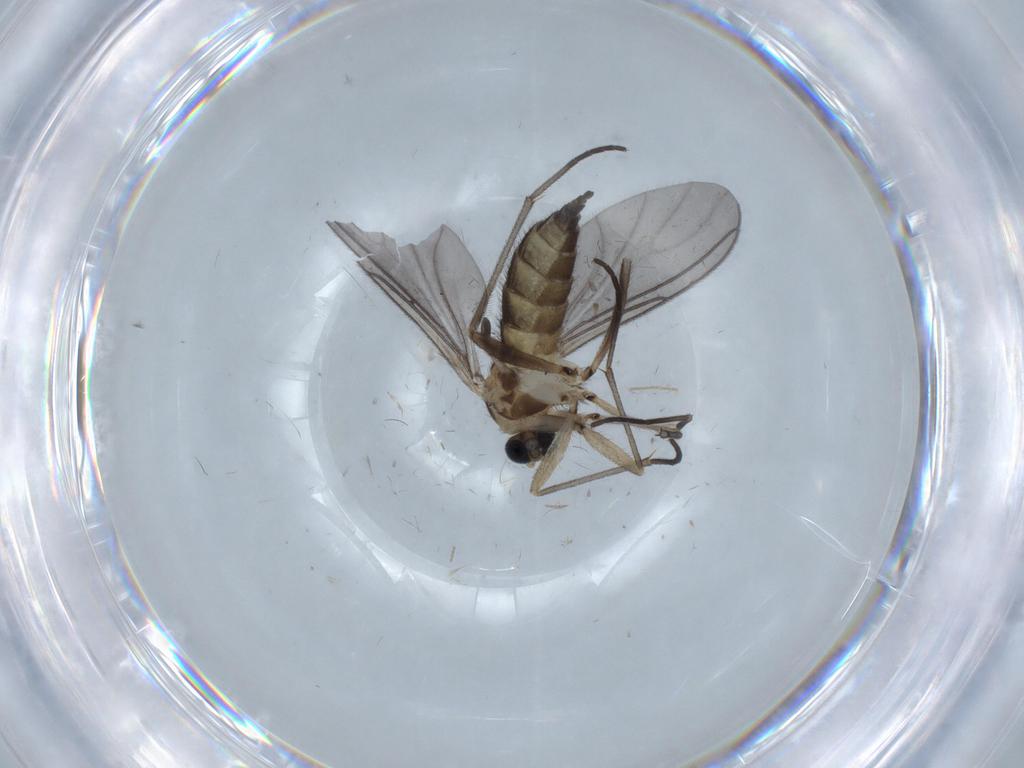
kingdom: Animalia
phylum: Arthropoda
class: Insecta
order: Diptera
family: Sciaridae
